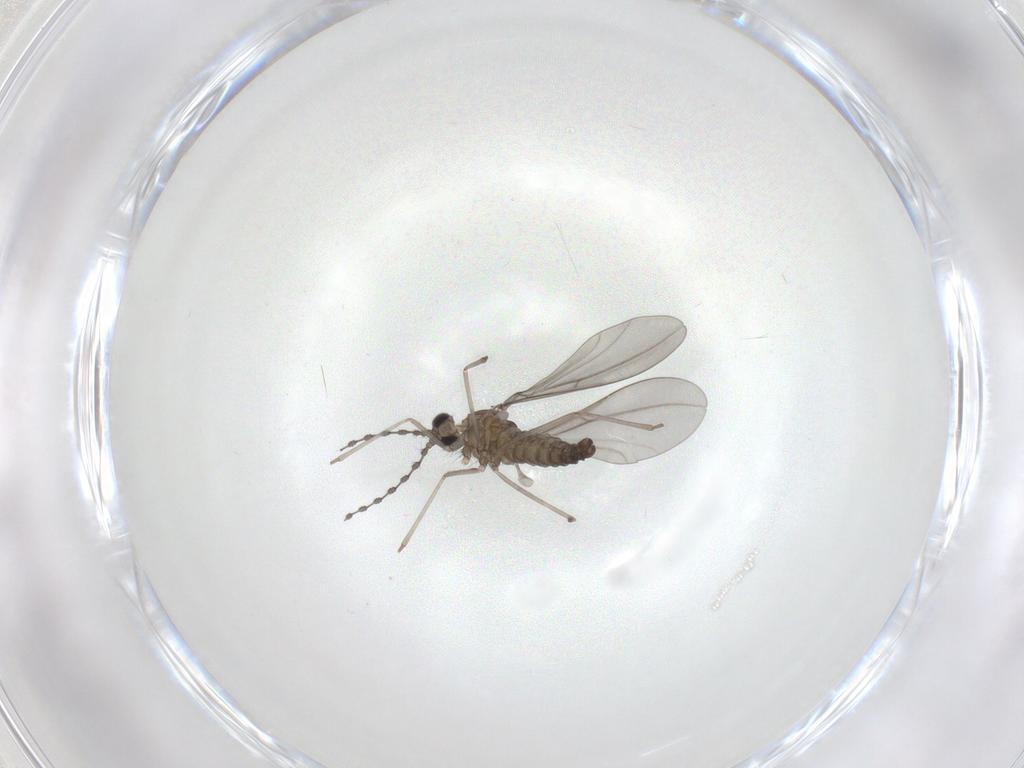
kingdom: Animalia
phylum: Arthropoda
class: Insecta
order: Diptera
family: Cecidomyiidae
